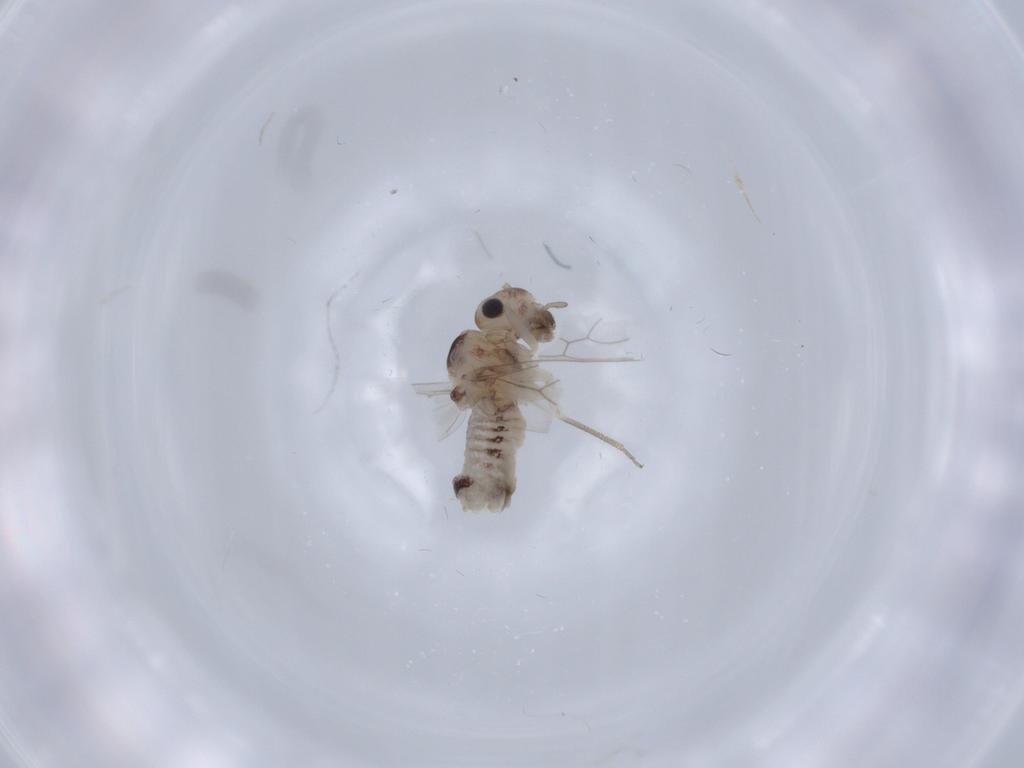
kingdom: Animalia
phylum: Arthropoda
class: Insecta
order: Psocodea
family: Peripsocidae
